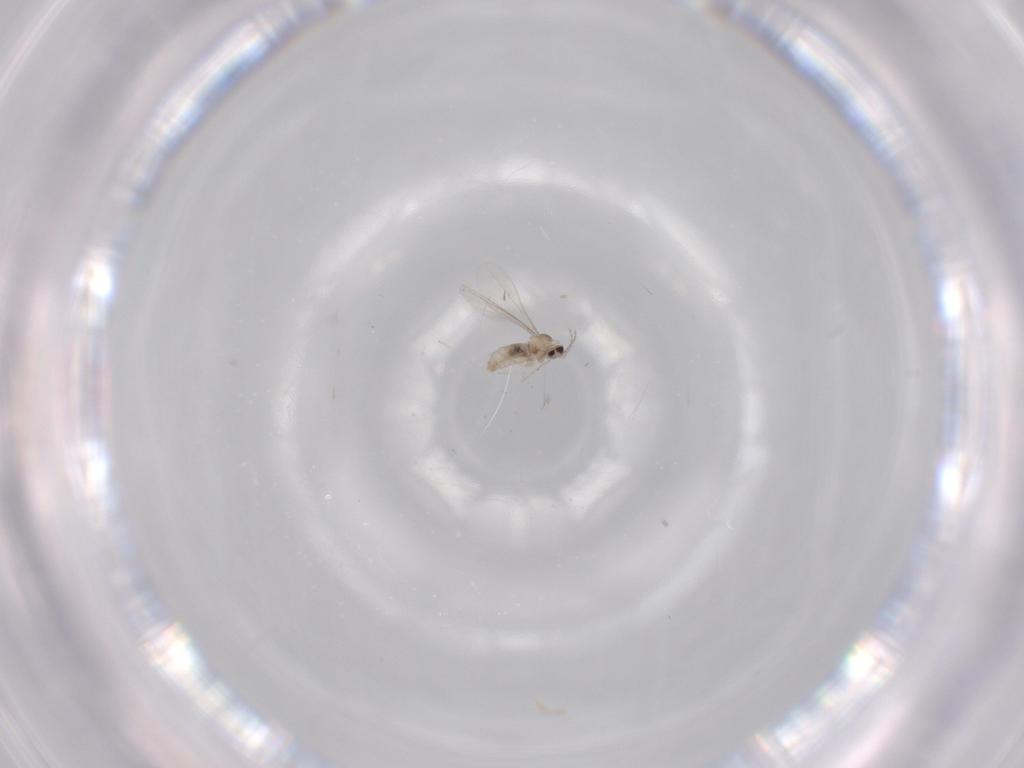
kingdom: Animalia
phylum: Arthropoda
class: Insecta
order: Diptera
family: Cecidomyiidae
